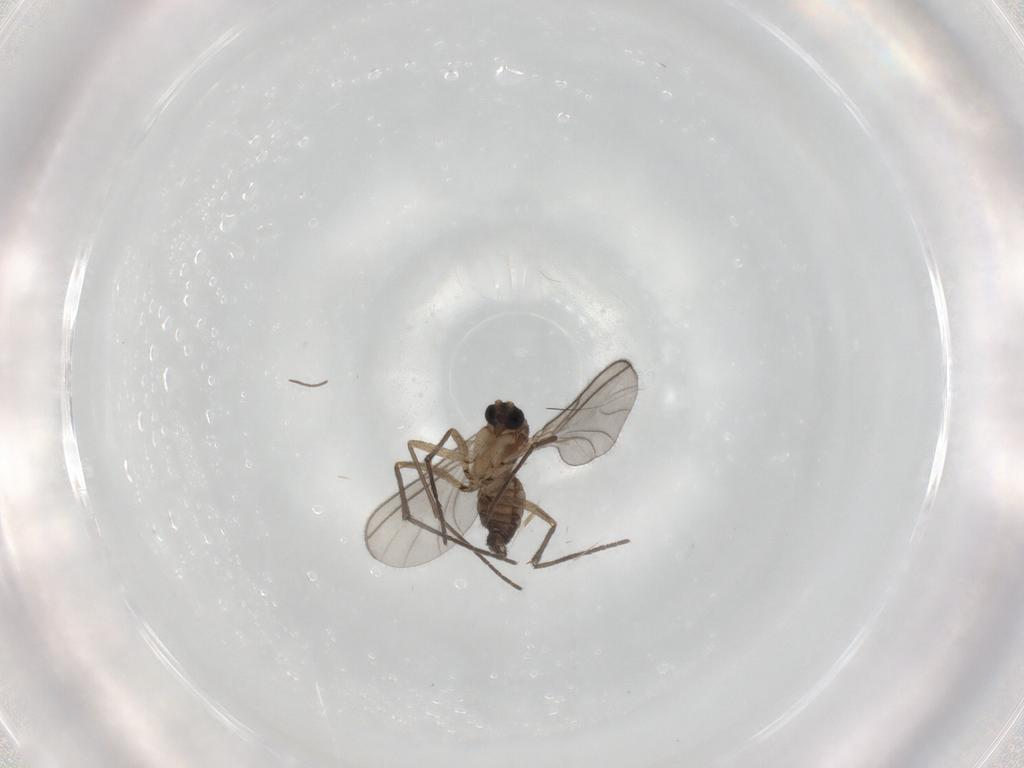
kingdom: Animalia
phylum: Arthropoda
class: Insecta
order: Diptera
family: Phoridae
